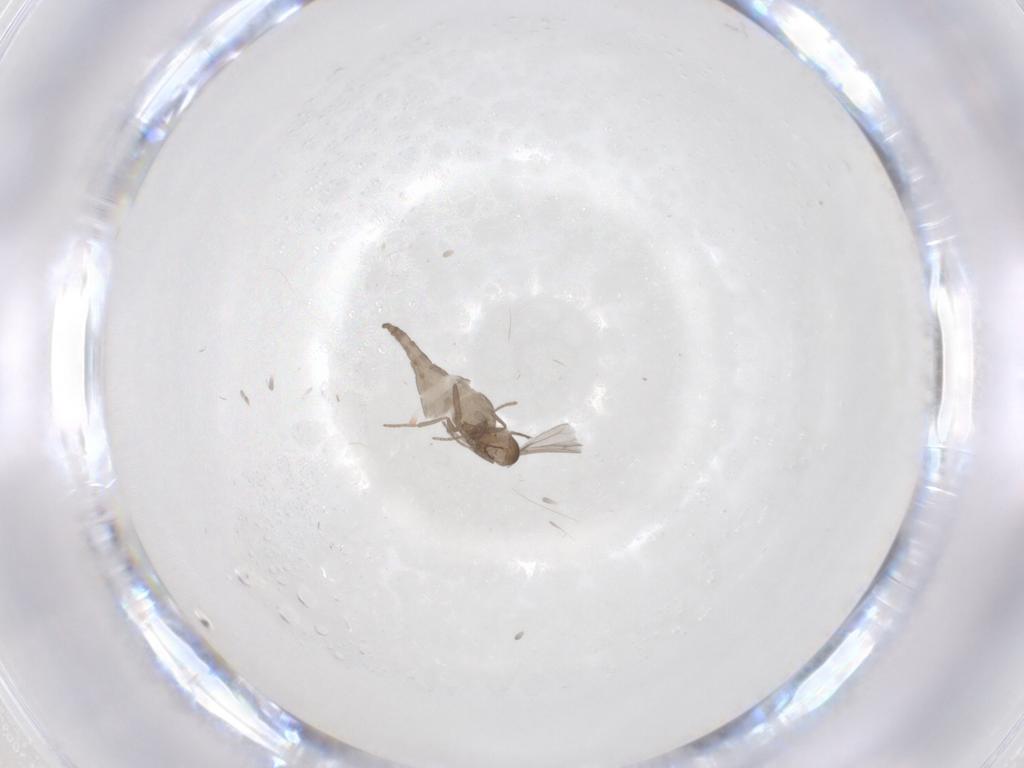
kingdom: Animalia
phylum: Arthropoda
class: Insecta
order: Diptera
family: Cecidomyiidae
